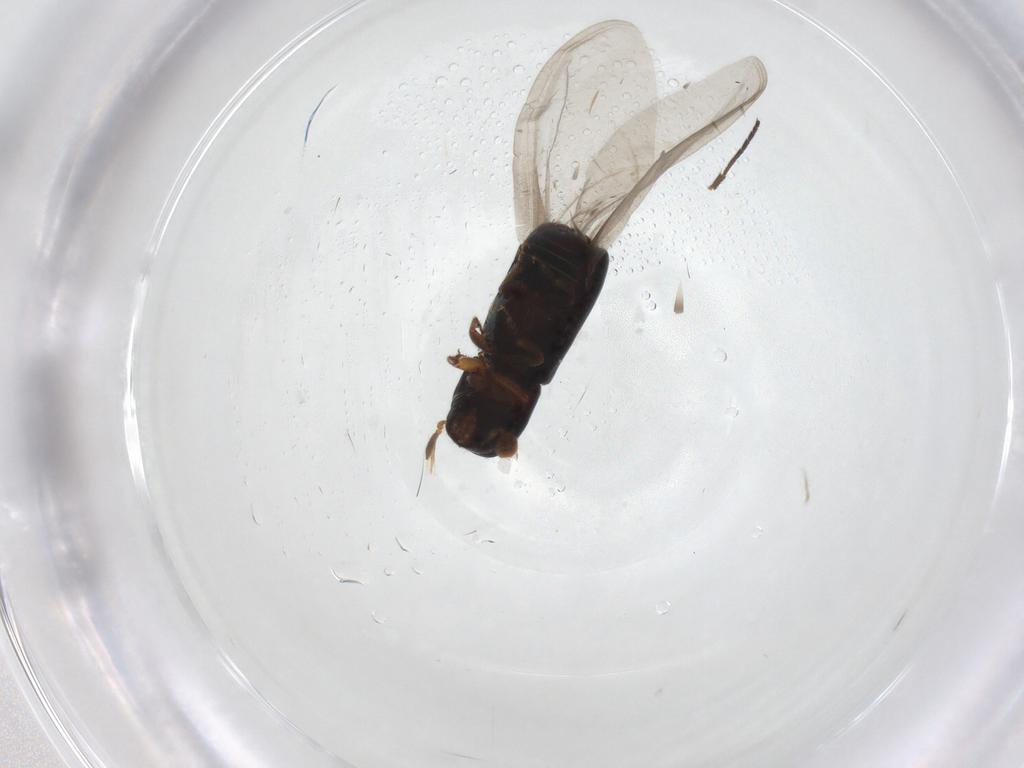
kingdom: Animalia
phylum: Arthropoda
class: Insecta
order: Coleoptera
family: Curculionidae
